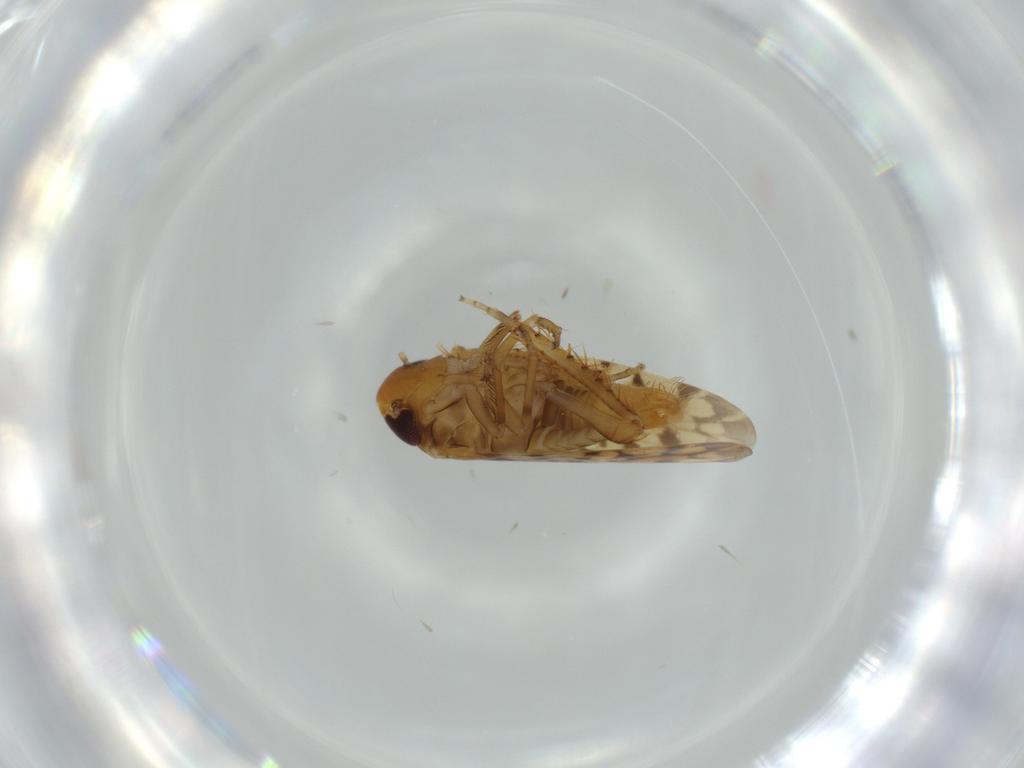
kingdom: Animalia
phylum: Arthropoda
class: Insecta
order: Hemiptera
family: Cicadellidae
